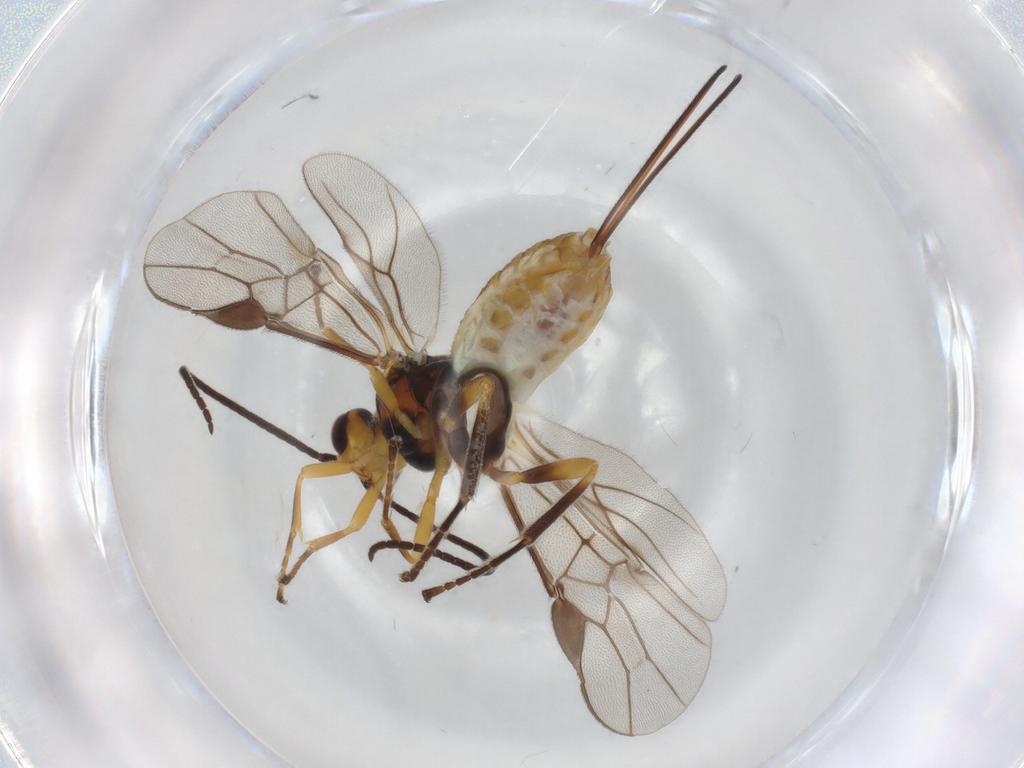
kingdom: Animalia
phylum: Arthropoda
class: Insecta
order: Hymenoptera
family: Braconidae
